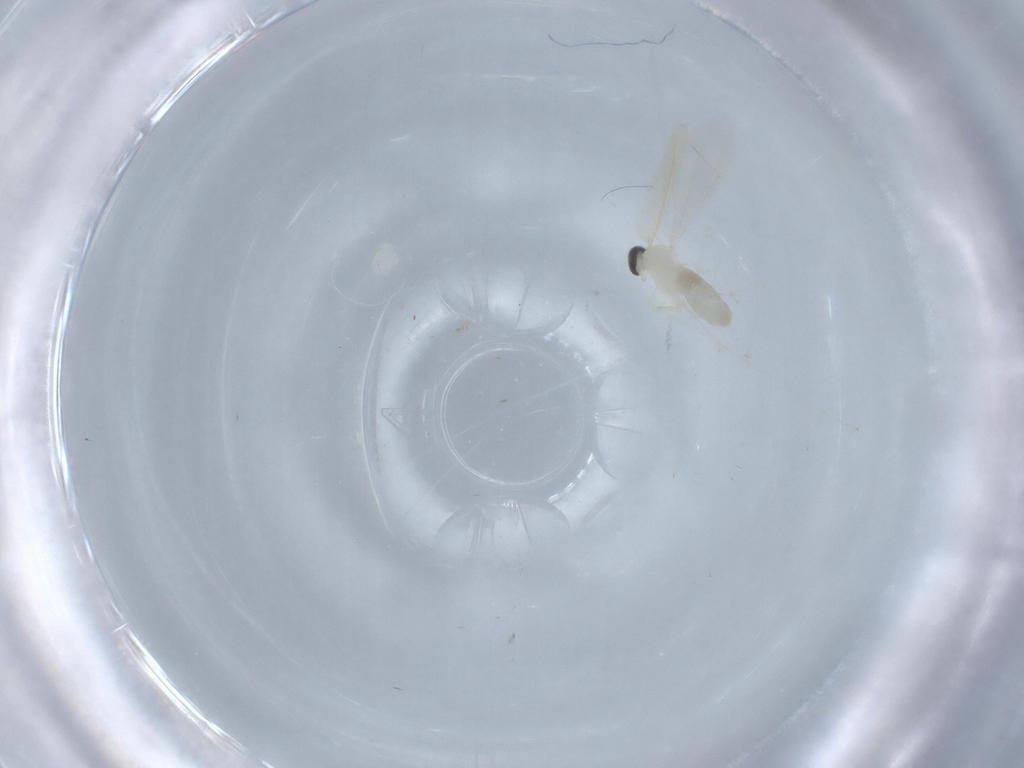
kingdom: Animalia
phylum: Arthropoda
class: Insecta
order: Diptera
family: Cecidomyiidae
